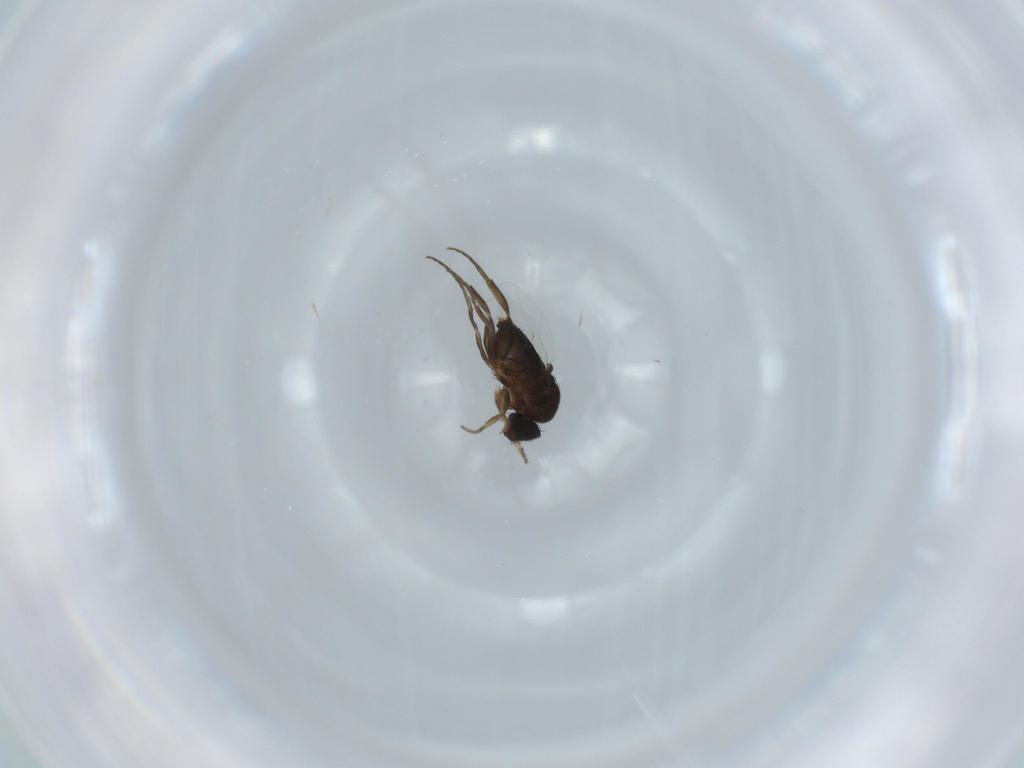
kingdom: Animalia
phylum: Arthropoda
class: Insecta
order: Diptera
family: Phoridae
